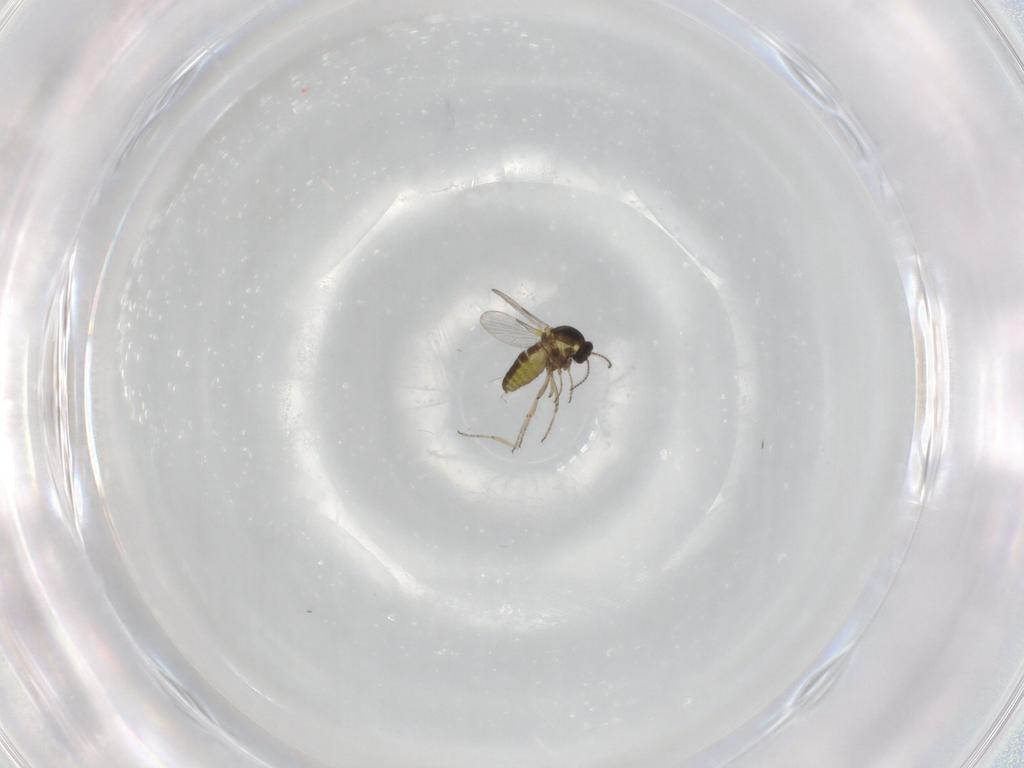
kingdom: Animalia
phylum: Arthropoda
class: Insecta
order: Diptera
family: Ceratopogonidae
